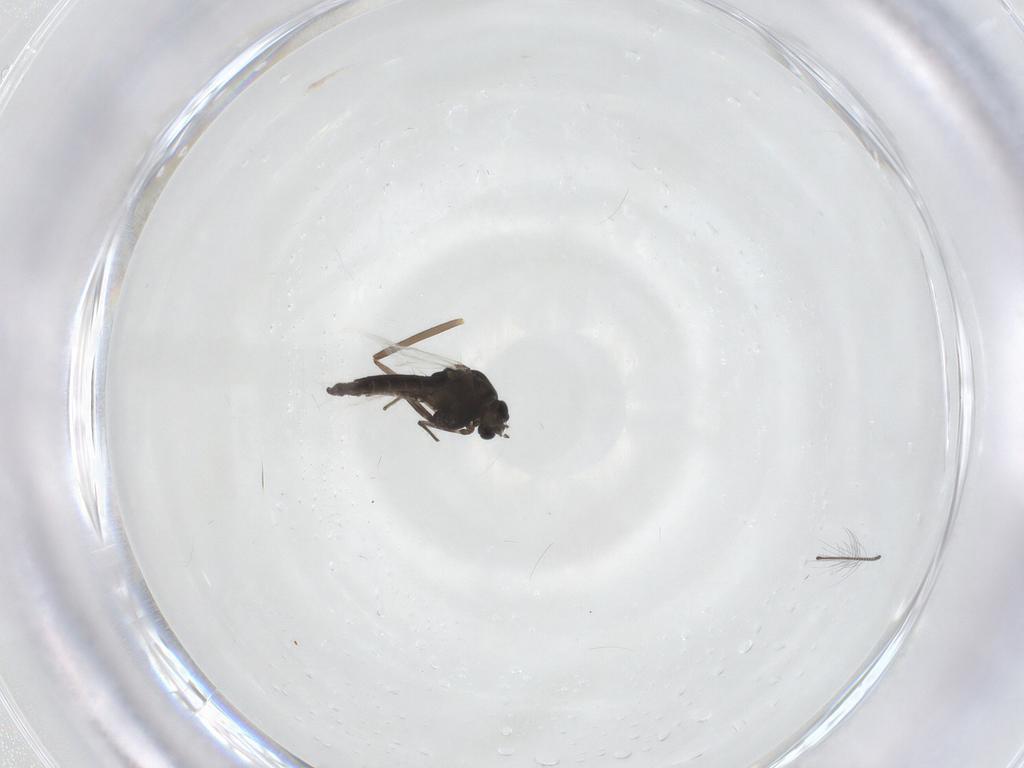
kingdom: Animalia
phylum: Arthropoda
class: Insecta
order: Diptera
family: Chironomidae
